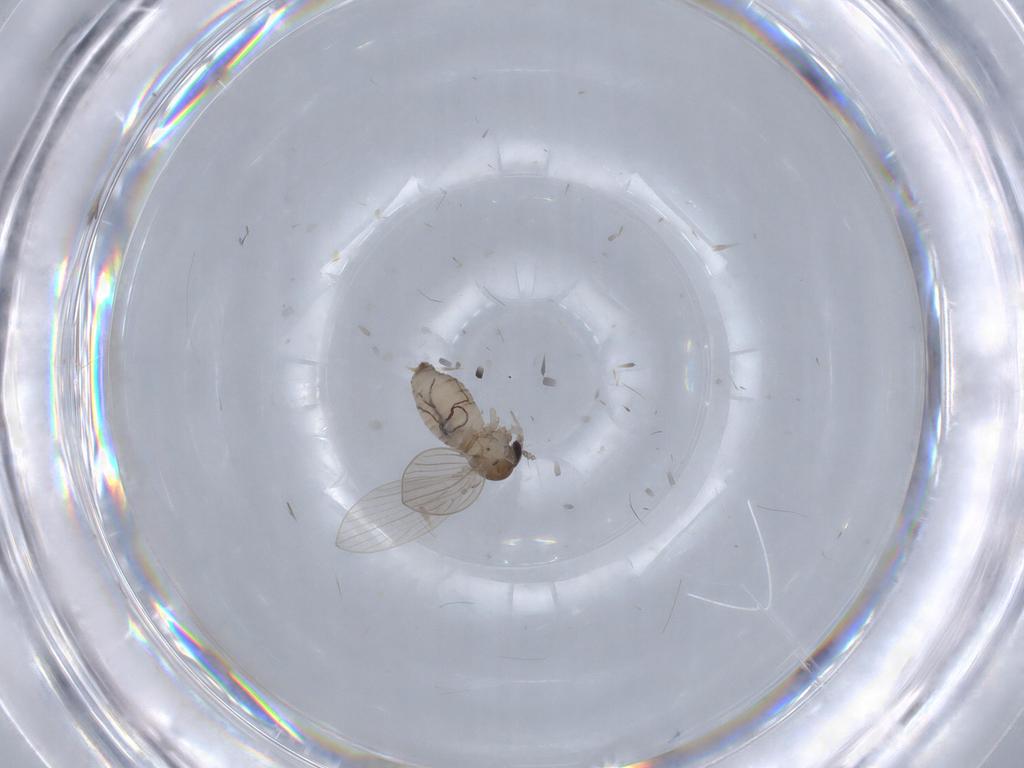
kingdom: Animalia
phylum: Arthropoda
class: Insecta
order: Diptera
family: Psychodidae
